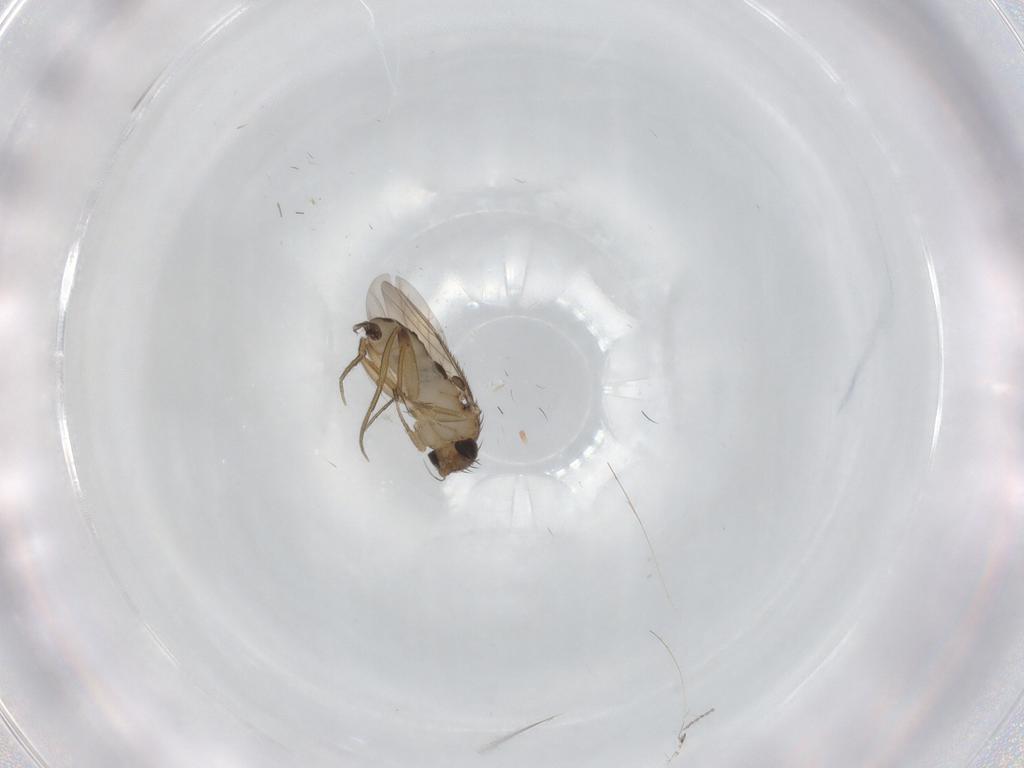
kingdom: Animalia
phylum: Arthropoda
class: Insecta
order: Diptera
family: Phoridae
